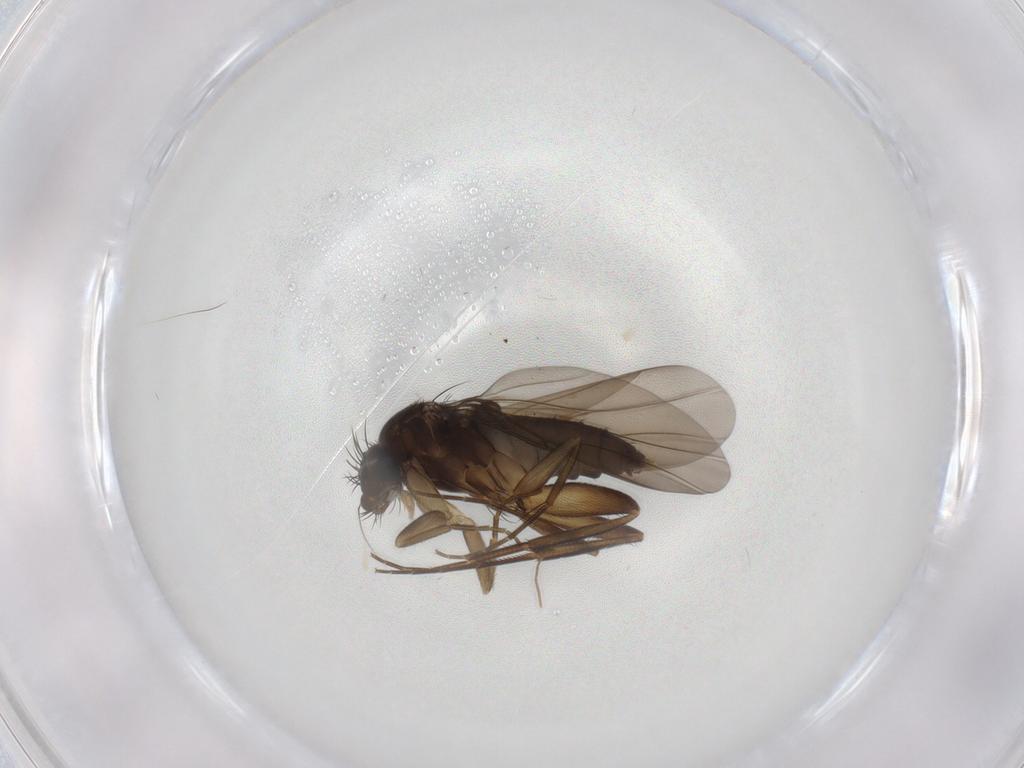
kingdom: Animalia
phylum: Arthropoda
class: Insecta
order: Diptera
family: Phoridae
